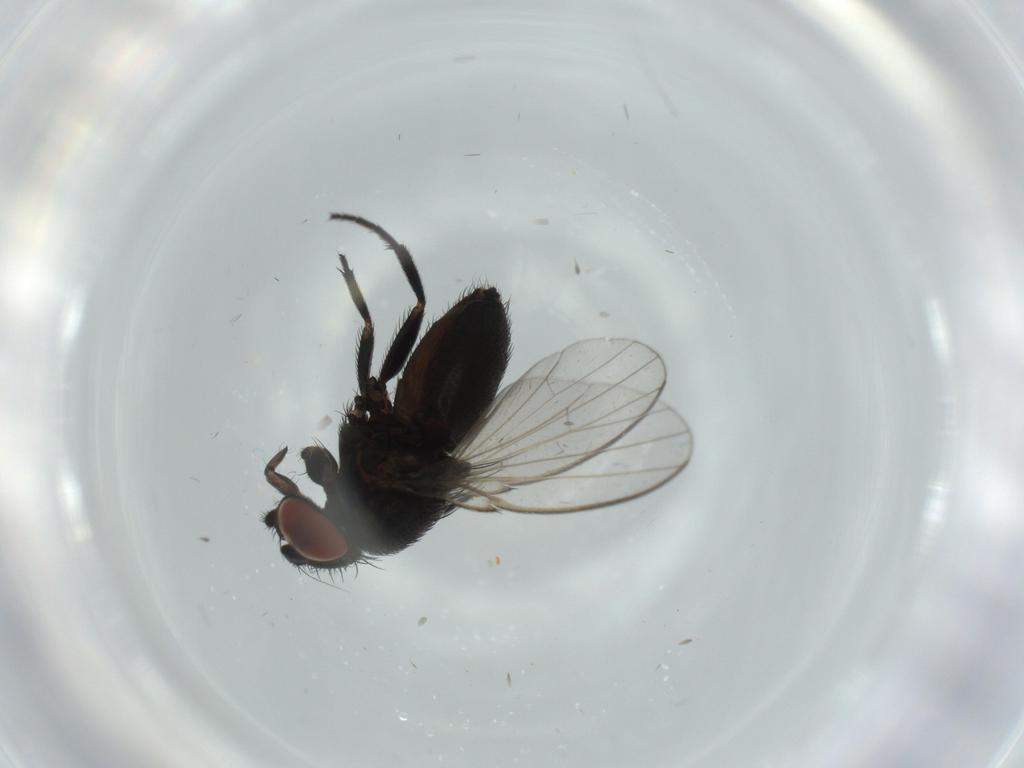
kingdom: Animalia
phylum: Arthropoda
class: Insecta
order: Diptera
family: Milichiidae
